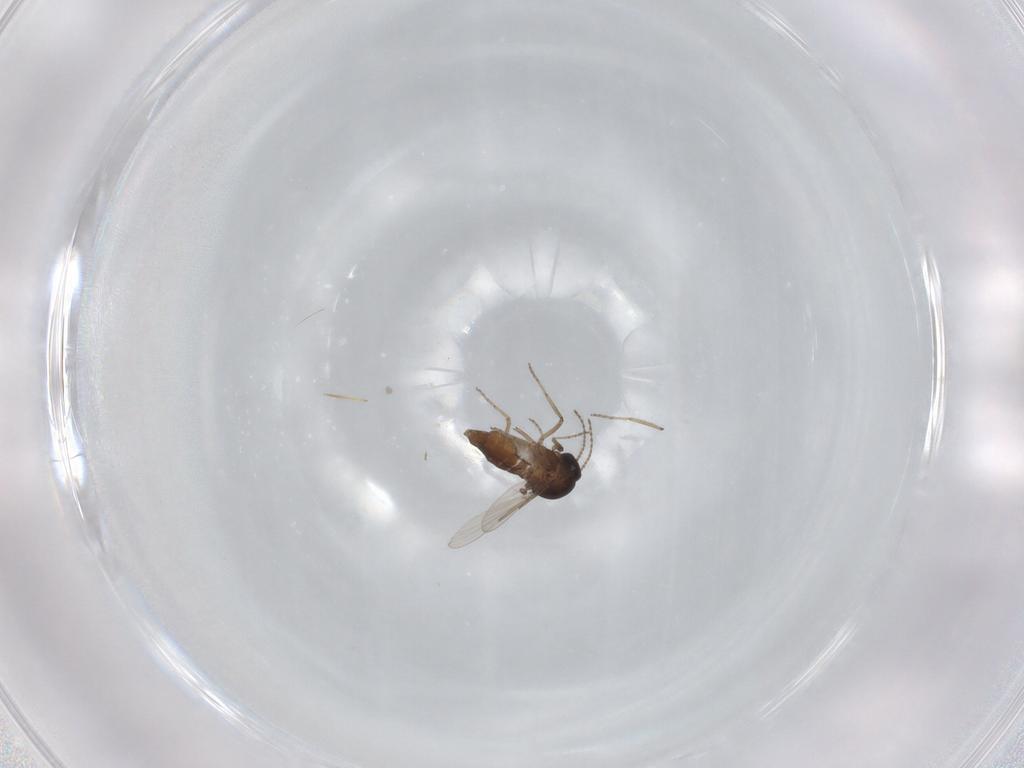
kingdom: Animalia
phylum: Arthropoda
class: Insecta
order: Diptera
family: Ceratopogonidae
